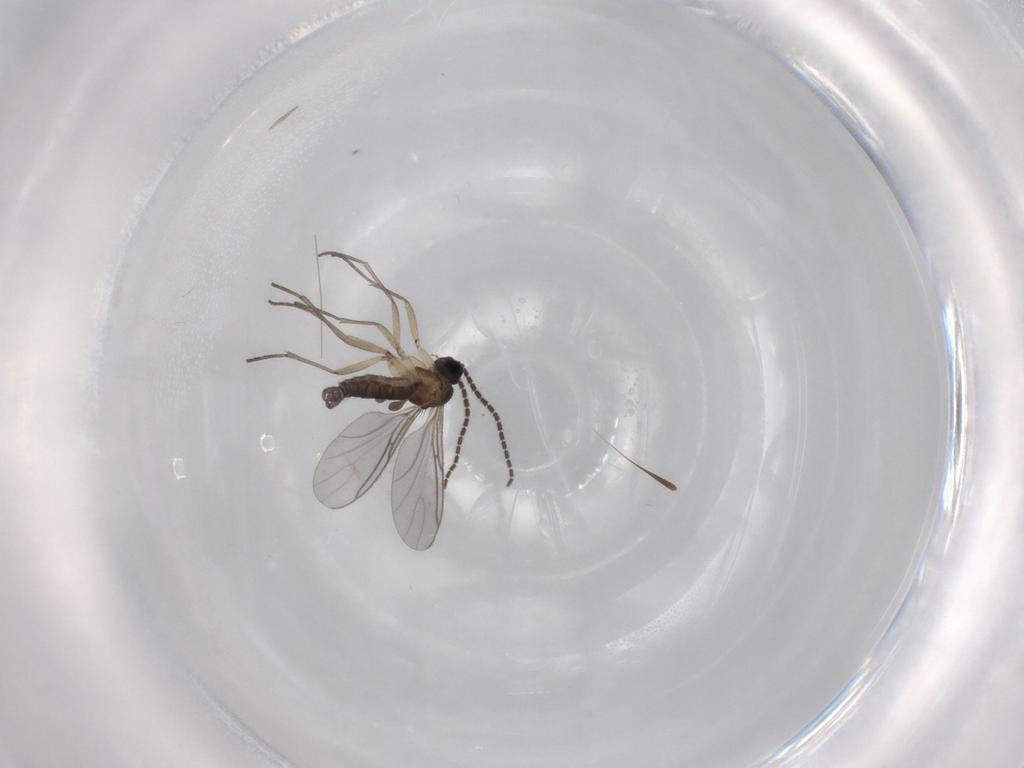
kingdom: Animalia
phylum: Arthropoda
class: Insecta
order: Diptera
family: Sciaridae
